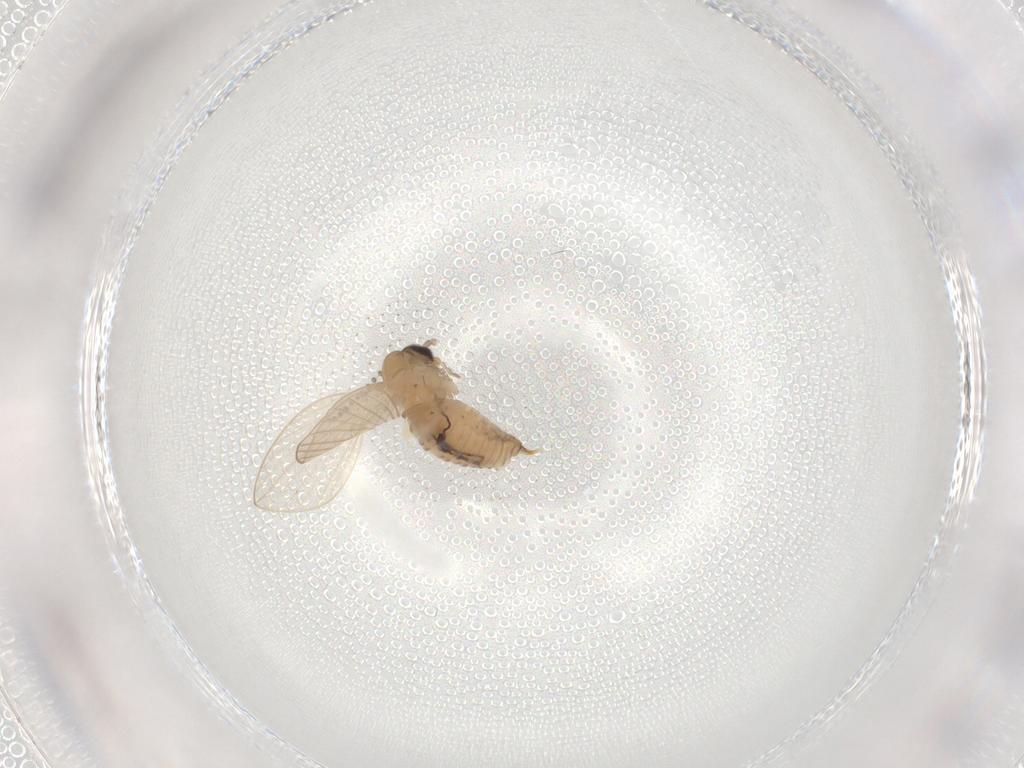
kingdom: Animalia
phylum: Arthropoda
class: Insecta
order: Diptera
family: Psychodidae
